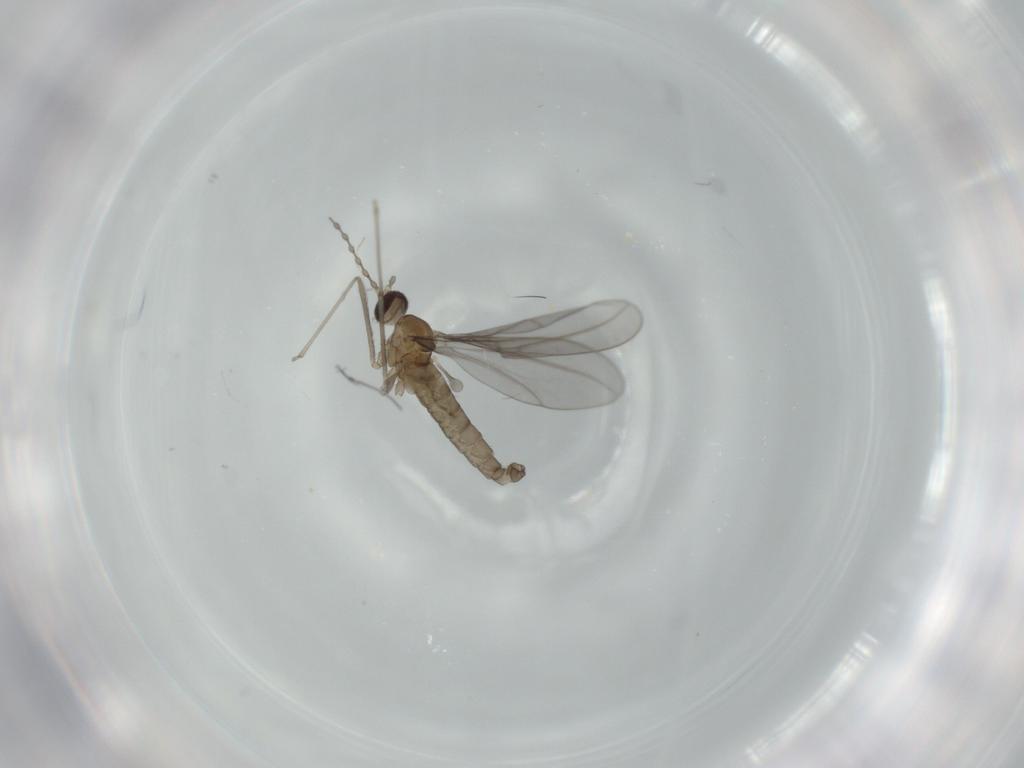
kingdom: Animalia
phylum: Arthropoda
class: Insecta
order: Diptera
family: Cecidomyiidae
